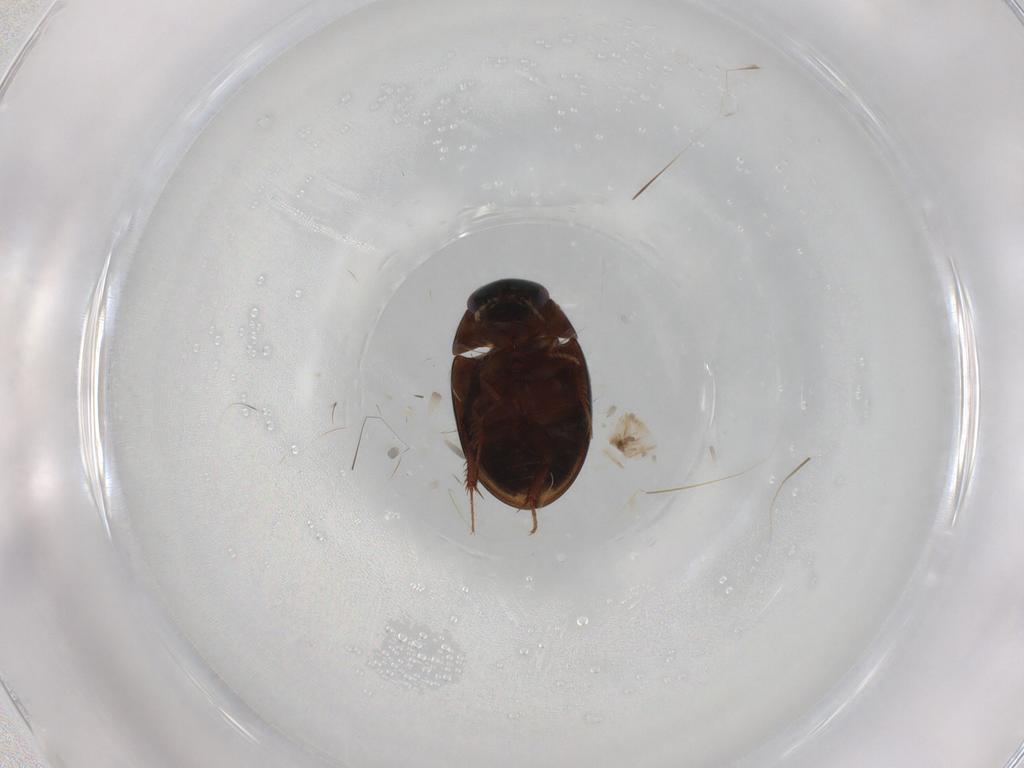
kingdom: Animalia
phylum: Arthropoda
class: Insecta
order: Coleoptera
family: Hydrophilidae
